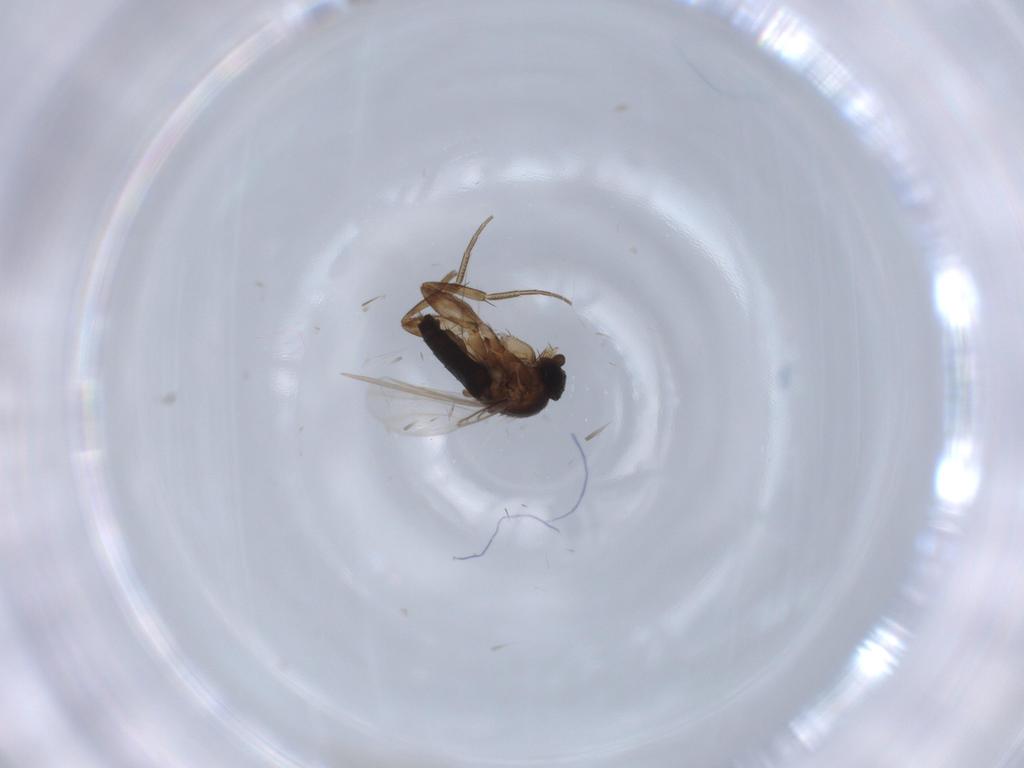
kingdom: Animalia
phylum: Arthropoda
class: Insecta
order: Diptera
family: Phoridae
